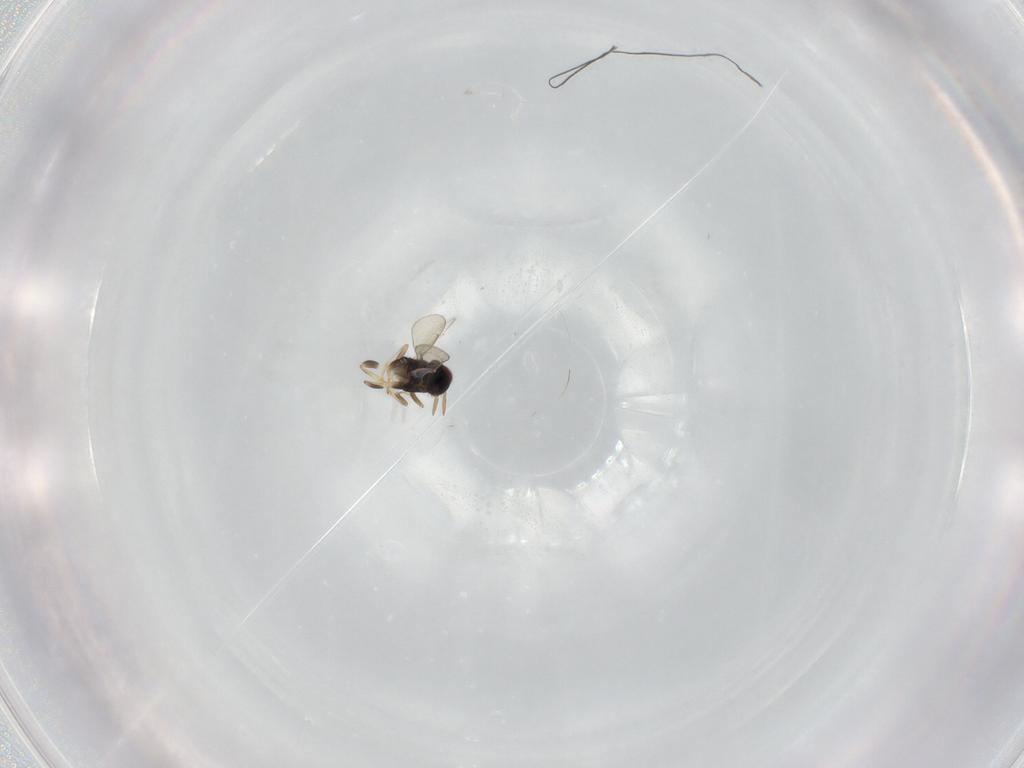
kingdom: Animalia
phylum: Arthropoda
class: Insecta
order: Hymenoptera
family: Aphelinidae
